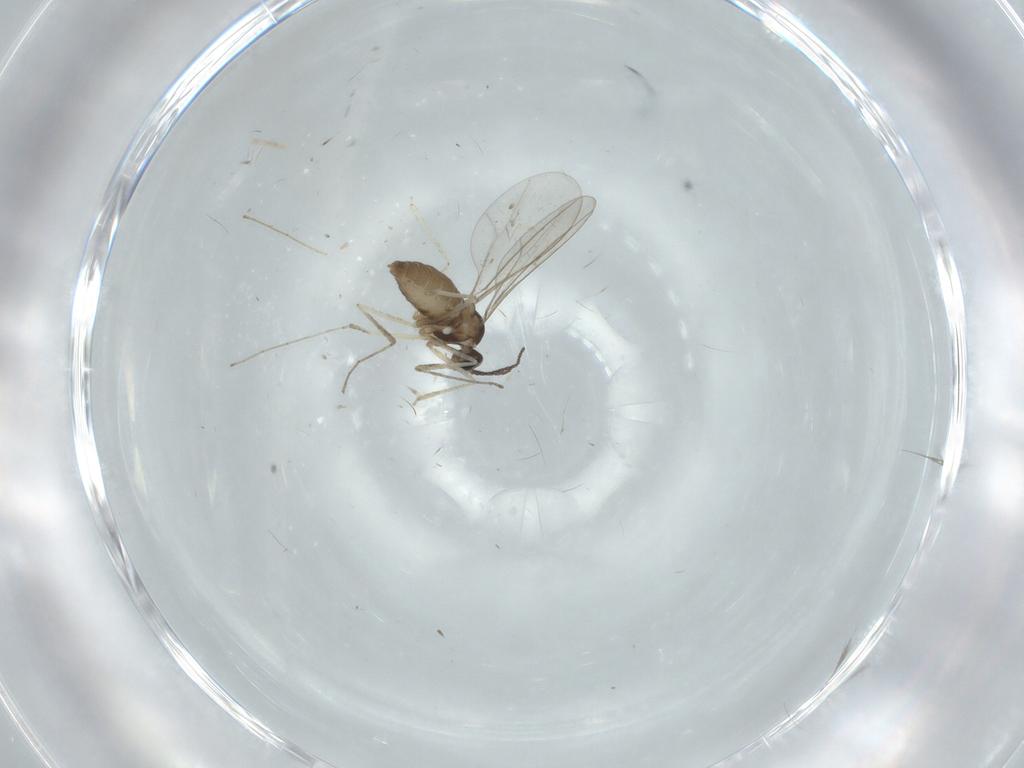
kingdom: Animalia
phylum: Arthropoda
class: Insecta
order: Diptera
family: Cecidomyiidae
